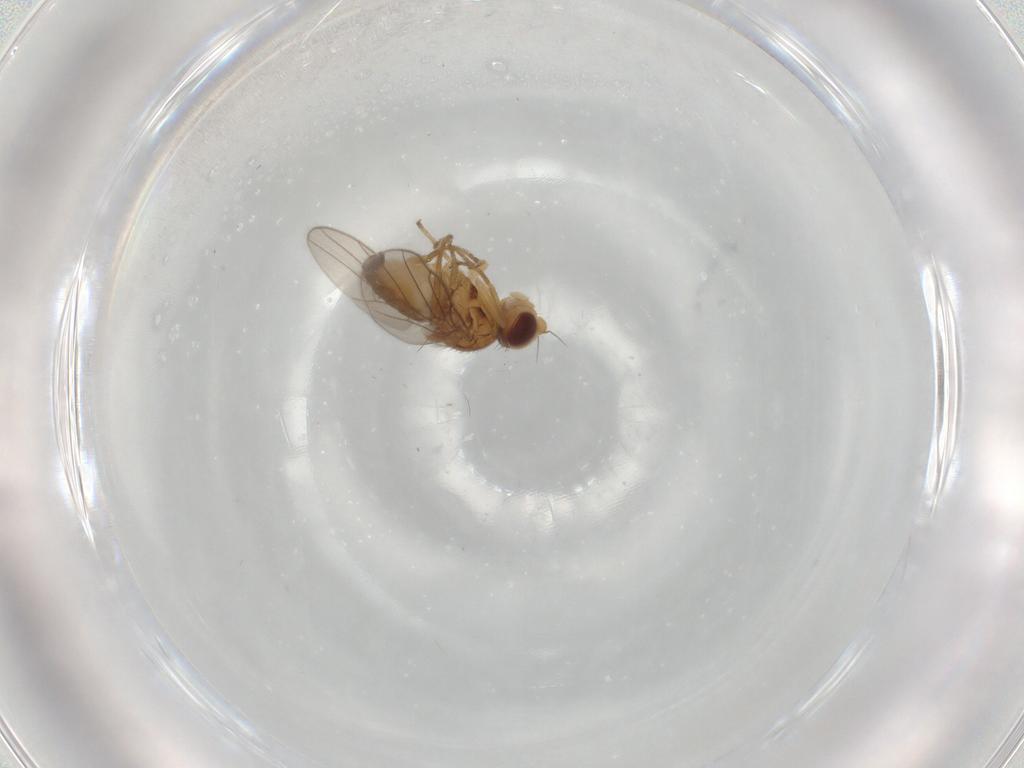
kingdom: Animalia
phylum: Arthropoda
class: Insecta
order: Diptera
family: Chloropidae
